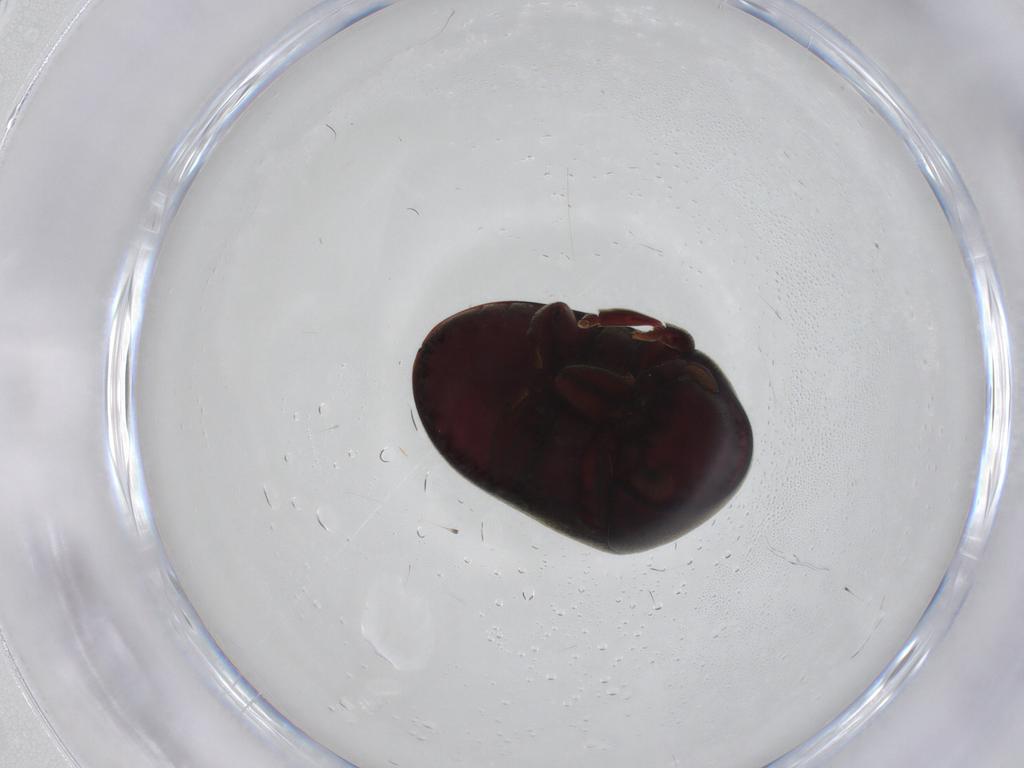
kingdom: Animalia
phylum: Arthropoda
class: Insecta
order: Coleoptera
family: Ptinidae
